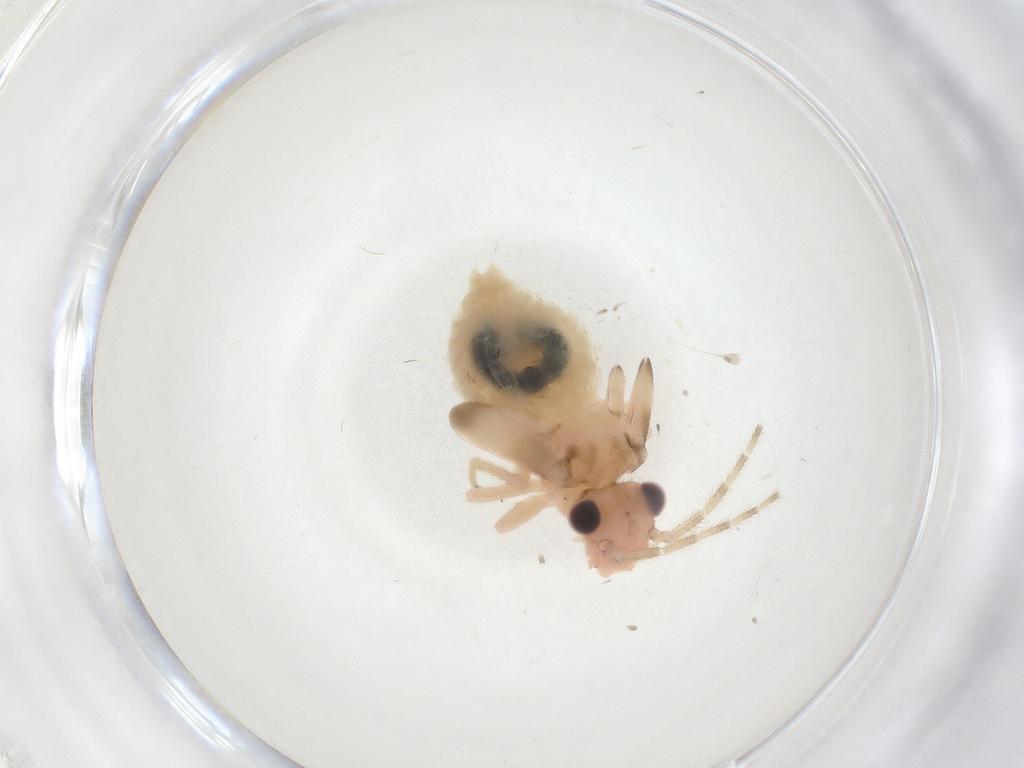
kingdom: Animalia
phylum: Arthropoda
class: Insecta
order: Psocodea
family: Amphipsocidae
